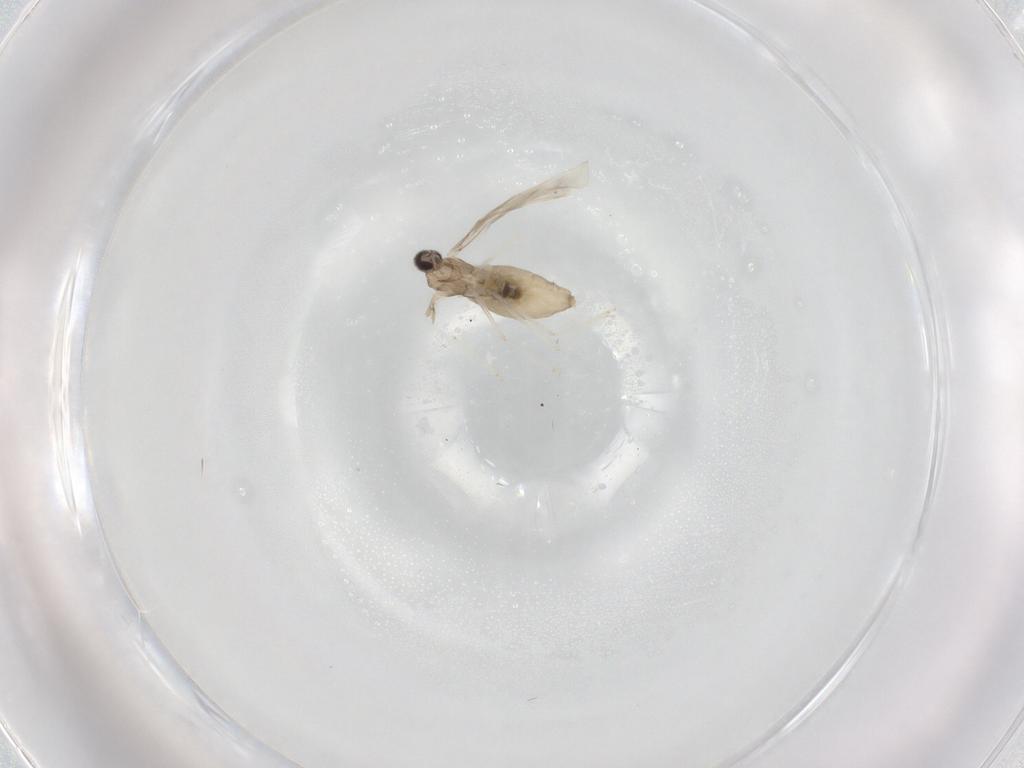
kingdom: Animalia
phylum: Arthropoda
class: Insecta
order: Diptera
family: Cecidomyiidae
